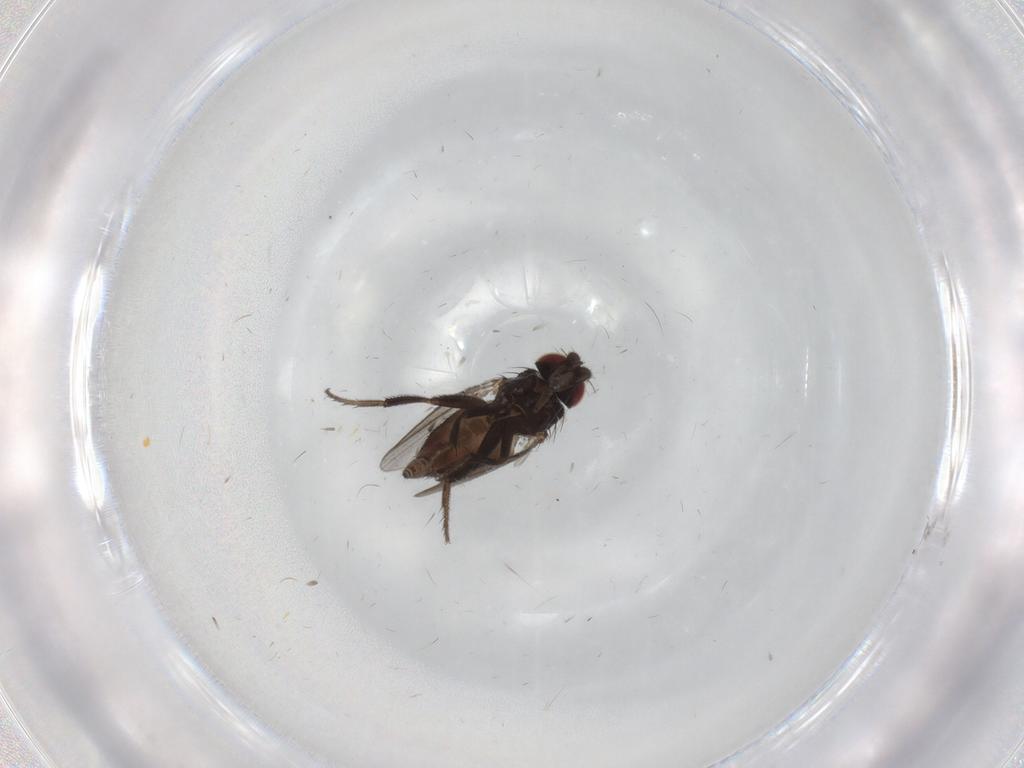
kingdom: Animalia
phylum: Arthropoda
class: Insecta
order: Diptera
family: Milichiidae
